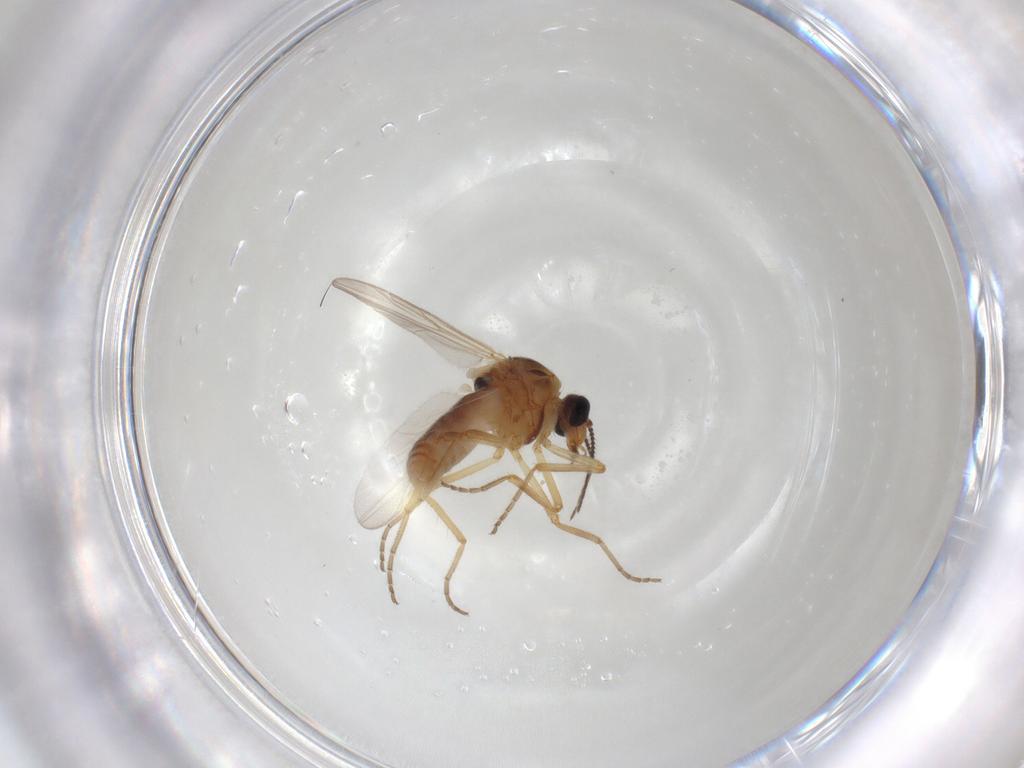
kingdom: Animalia
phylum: Arthropoda
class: Insecta
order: Diptera
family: Ceratopogonidae
